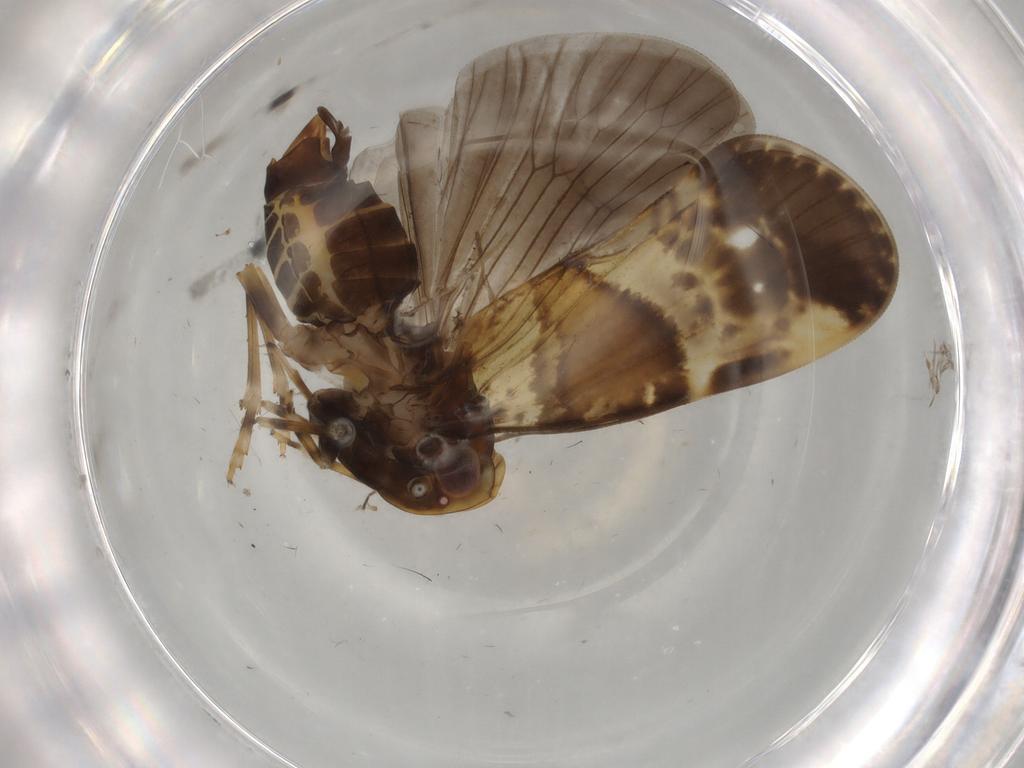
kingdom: Animalia
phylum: Arthropoda
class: Insecta
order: Hemiptera
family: Cixiidae
